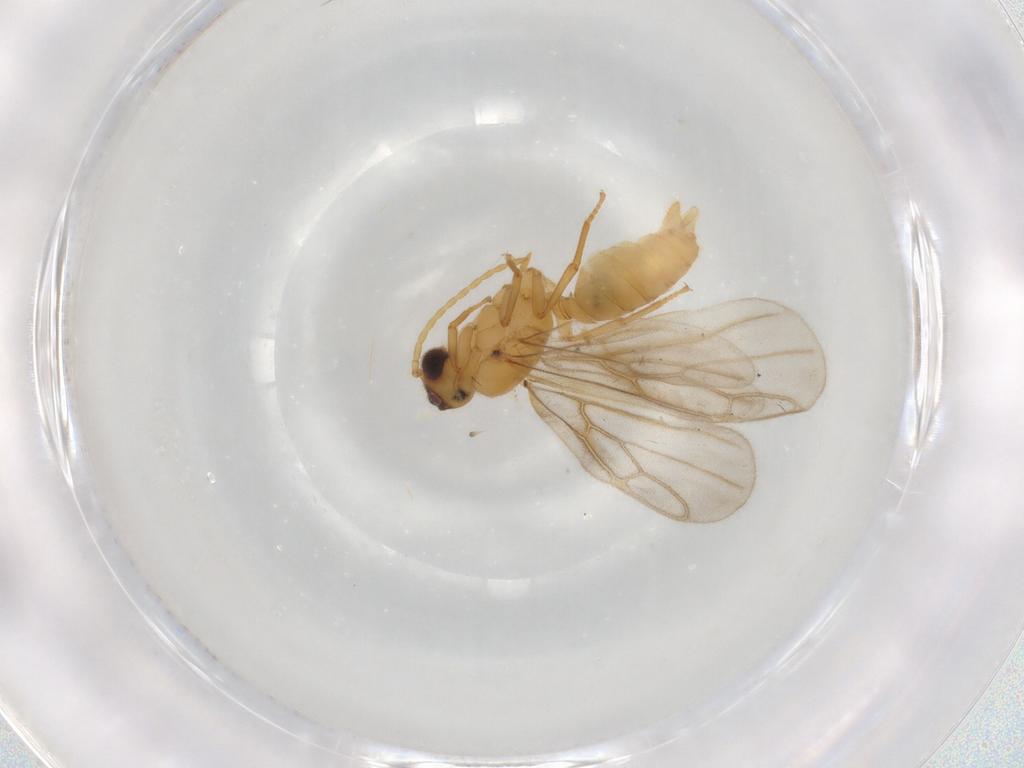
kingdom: Animalia
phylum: Arthropoda
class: Insecta
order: Hymenoptera
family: Formicidae
